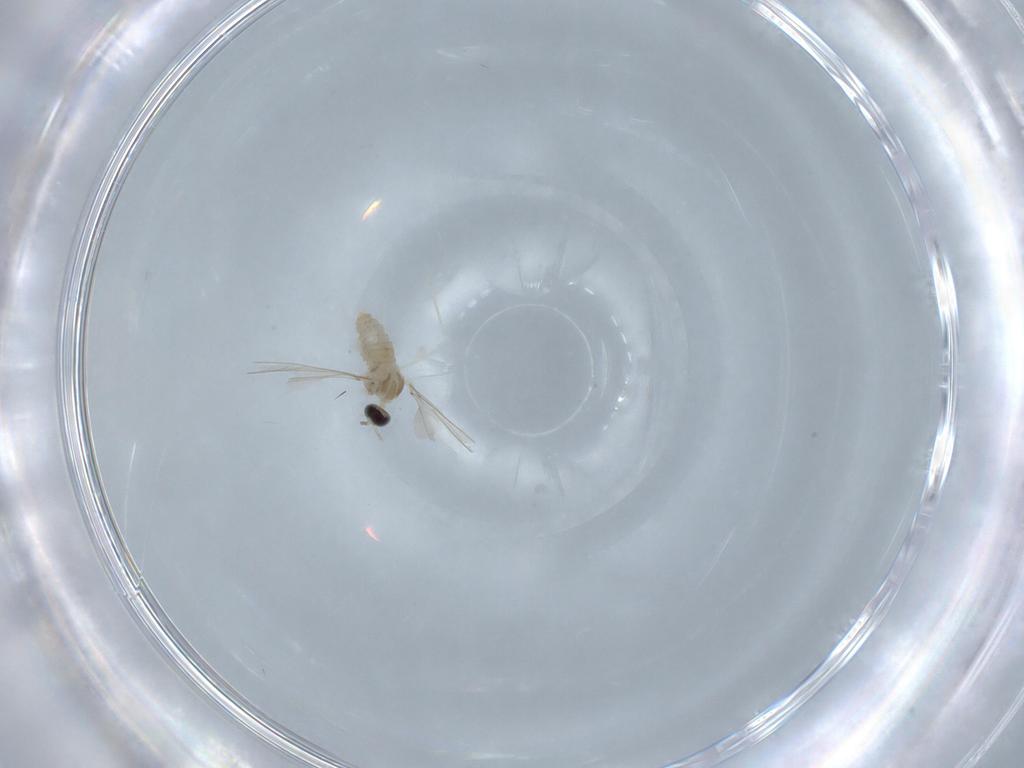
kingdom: Animalia
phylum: Arthropoda
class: Insecta
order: Diptera
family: Cecidomyiidae
